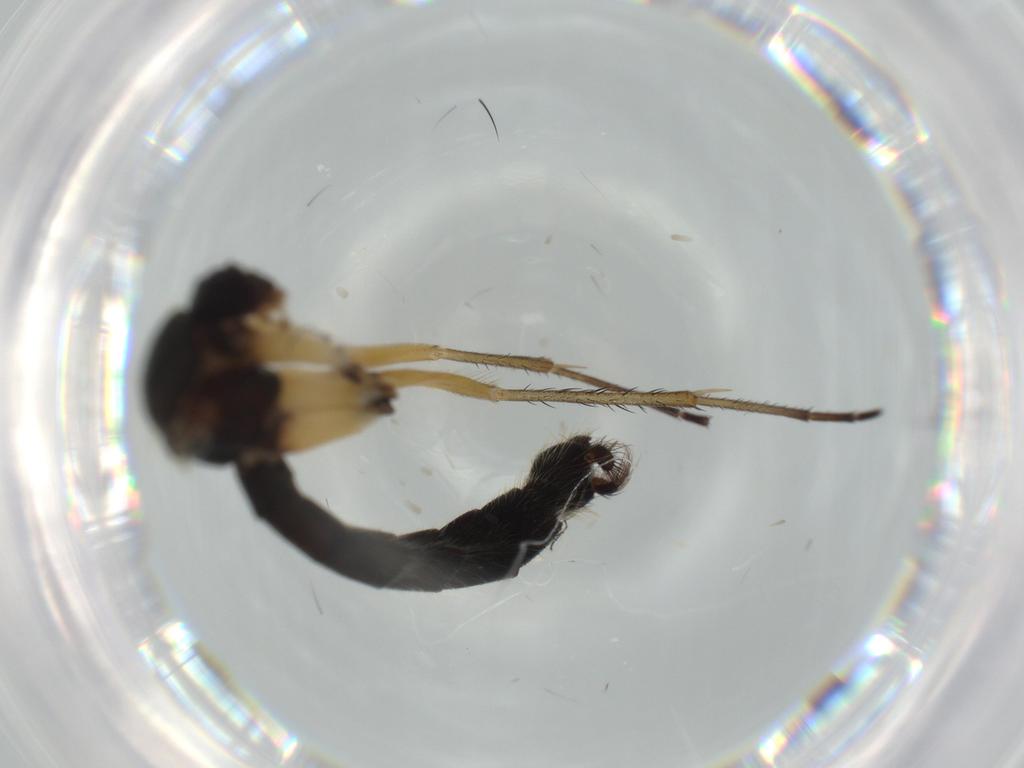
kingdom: Animalia
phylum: Arthropoda
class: Insecta
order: Diptera
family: Muscidae
